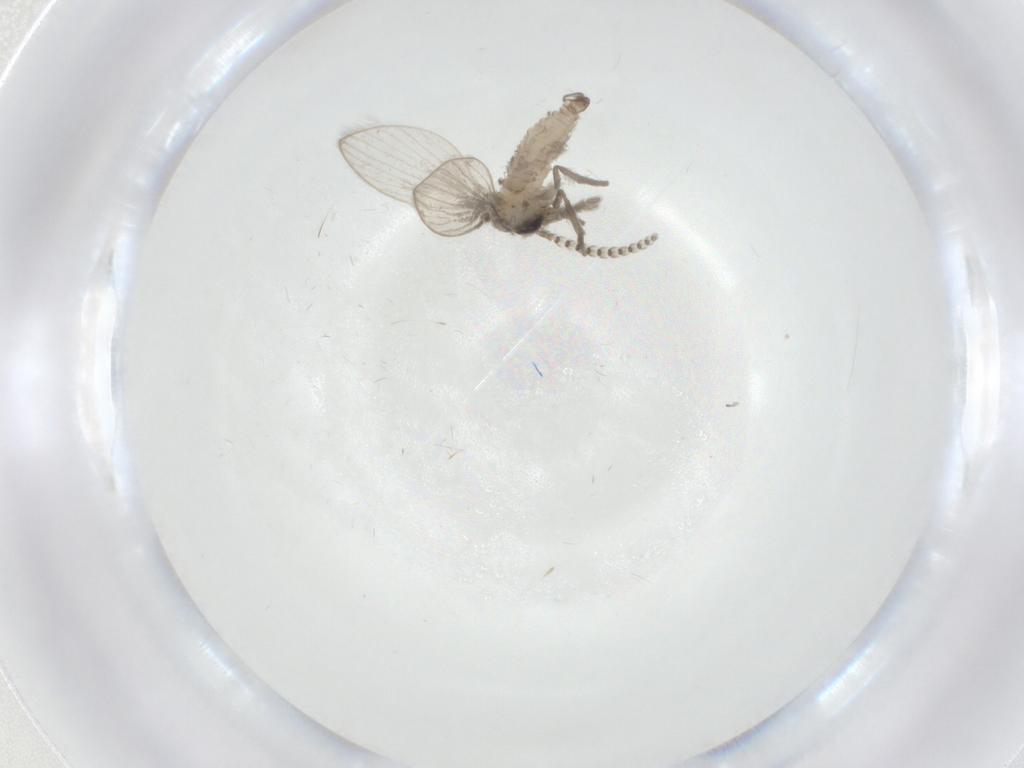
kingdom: Animalia
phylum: Arthropoda
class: Insecta
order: Diptera
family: Psychodidae
